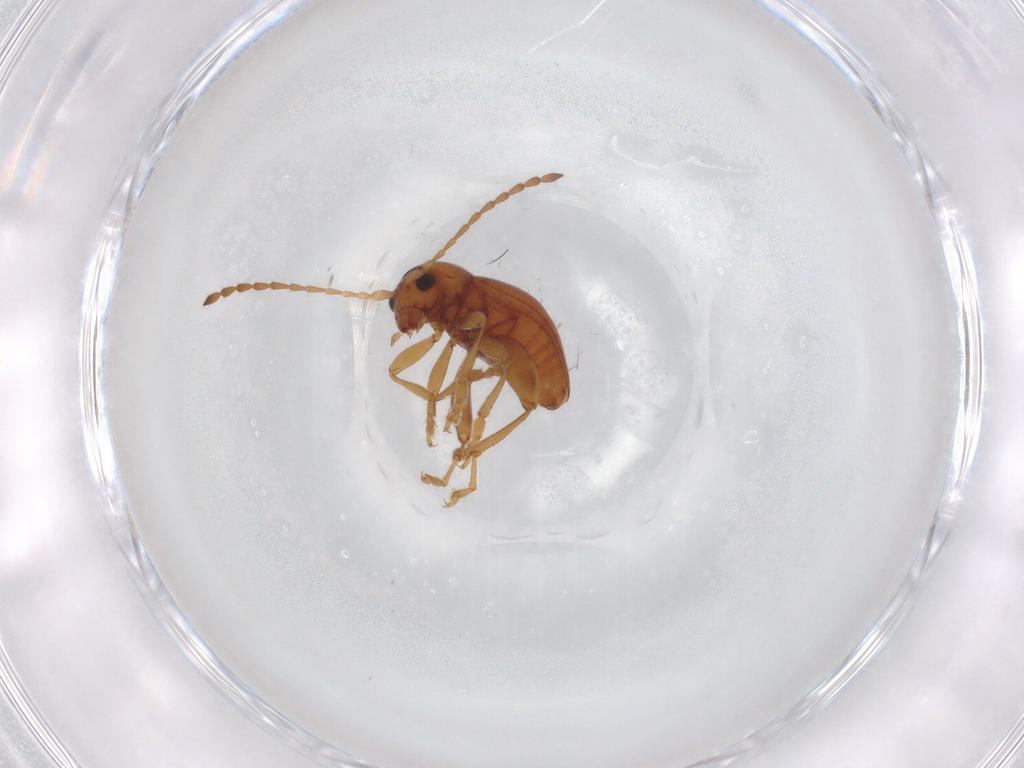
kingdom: Animalia
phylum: Arthropoda
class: Insecta
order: Coleoptera
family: Chrysomelidae
